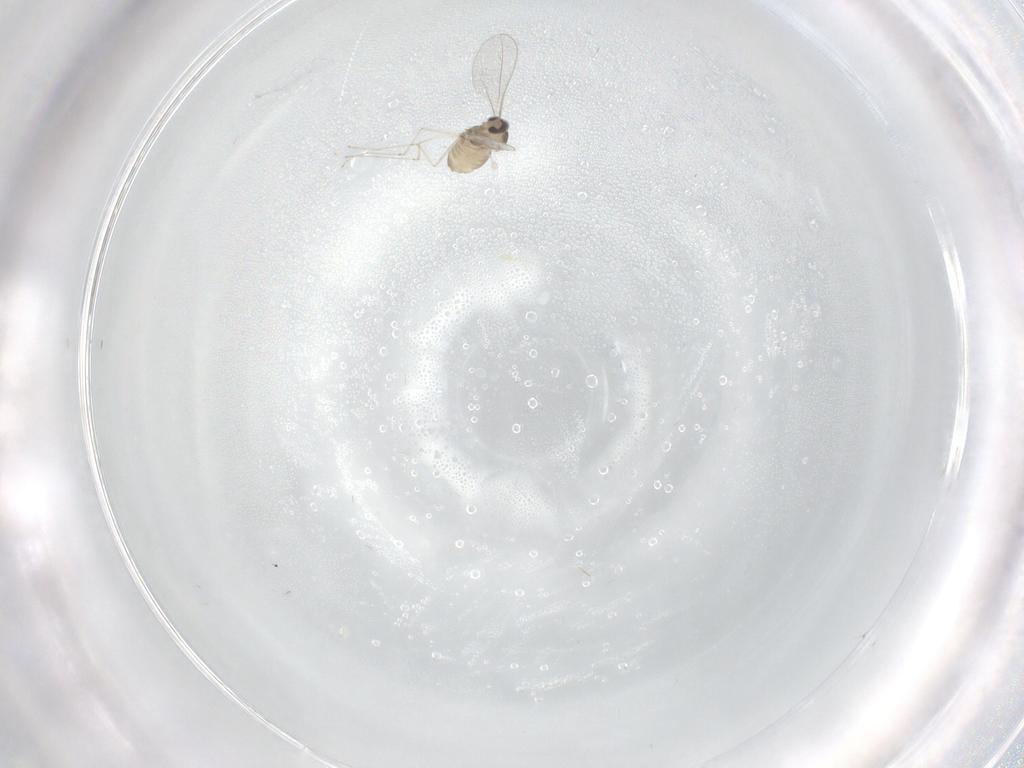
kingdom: Animalia
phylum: Arthropoda
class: Insecta
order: Diptera
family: Cecidomyiidae
